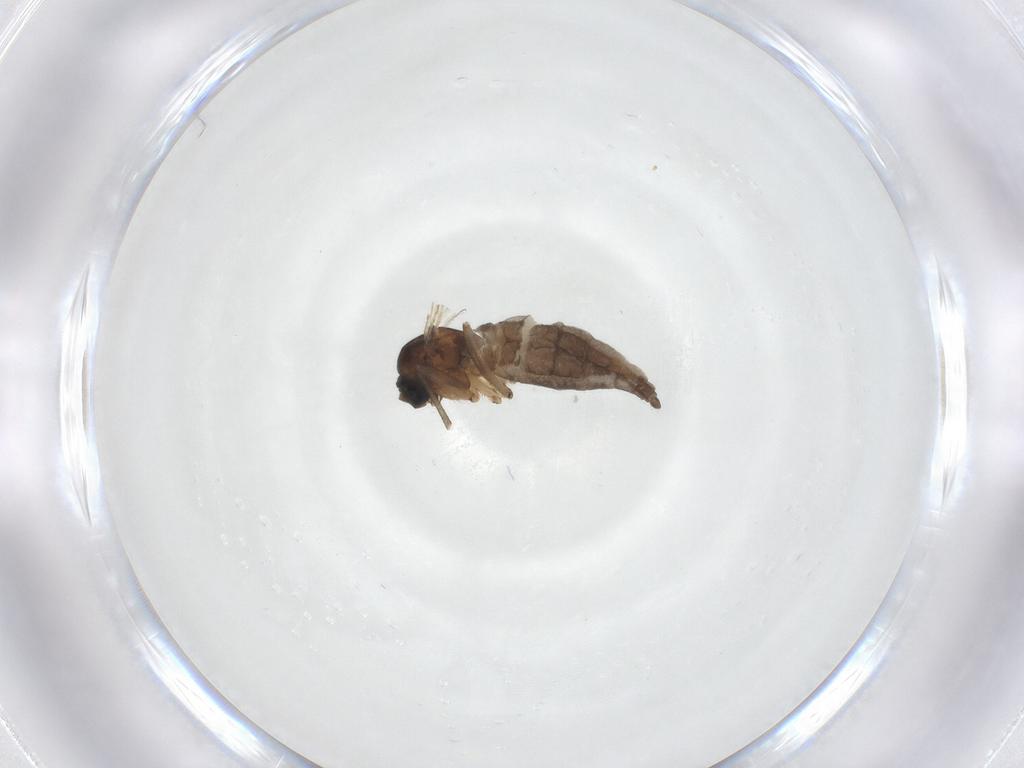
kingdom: Animalia
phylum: Arthropoda
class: Insecta
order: Diptera
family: Sciaridae
